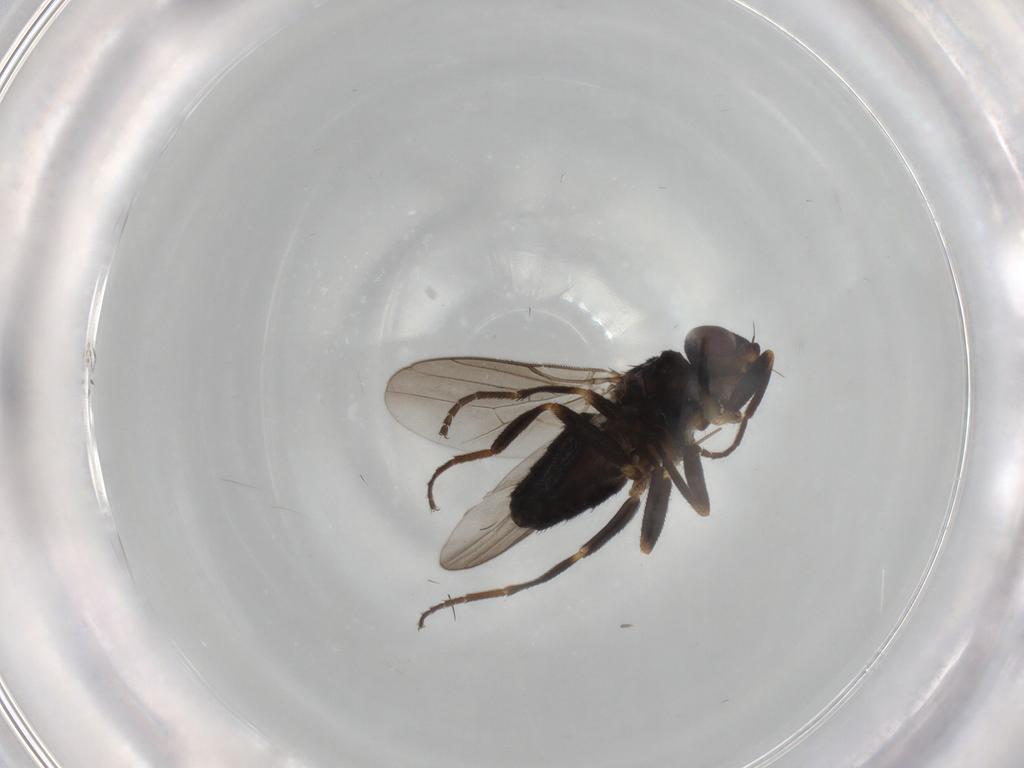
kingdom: Animalia
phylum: Arthropoda
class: Insecta
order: Diptera
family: Chloropidae
